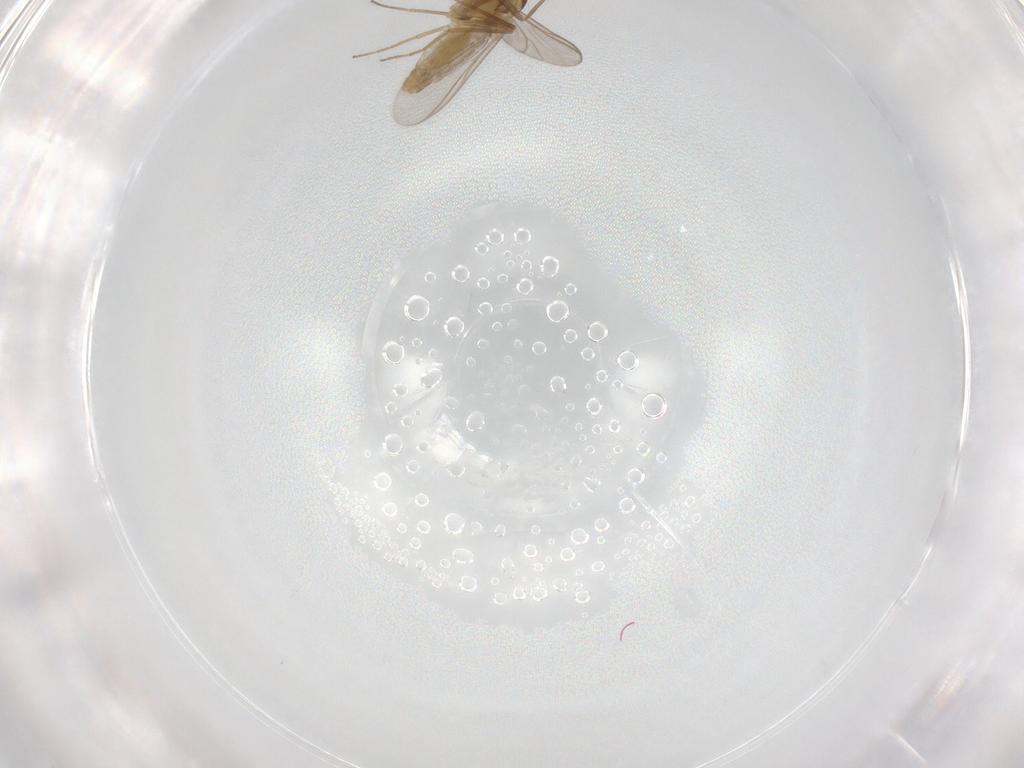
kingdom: Animalia
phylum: Arthropoda
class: Insecta
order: Diptera
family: Chironomidae
